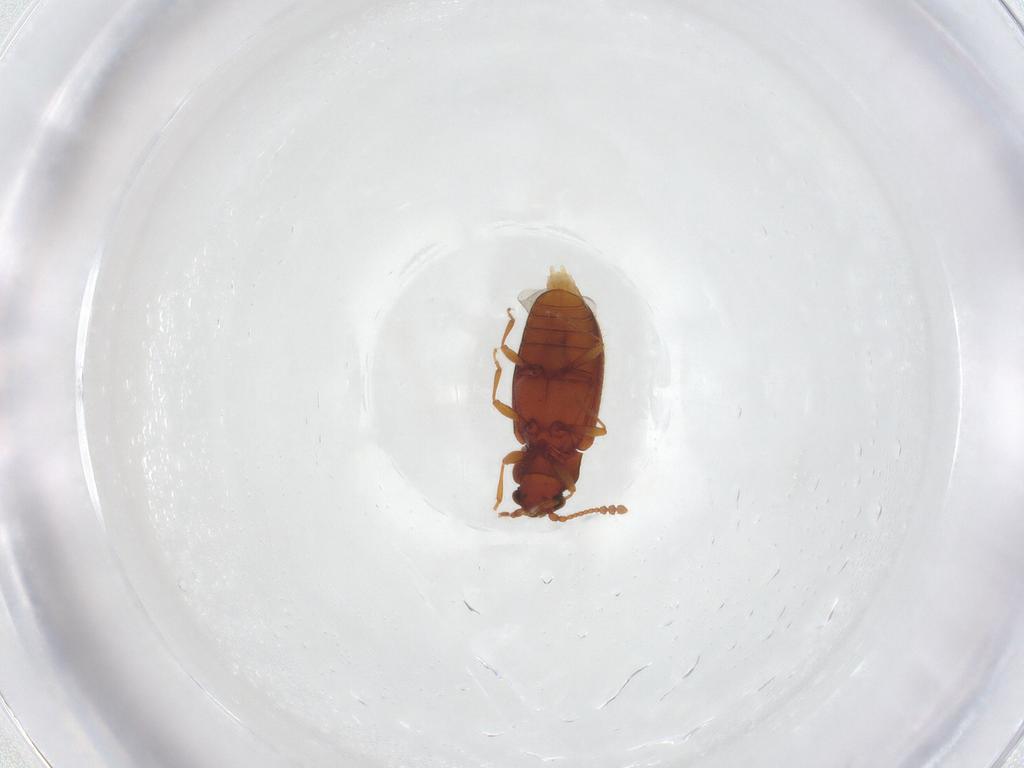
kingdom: Animalia
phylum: Arthropoda
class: Insecta
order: Coleoptera
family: Cryptophagidae
